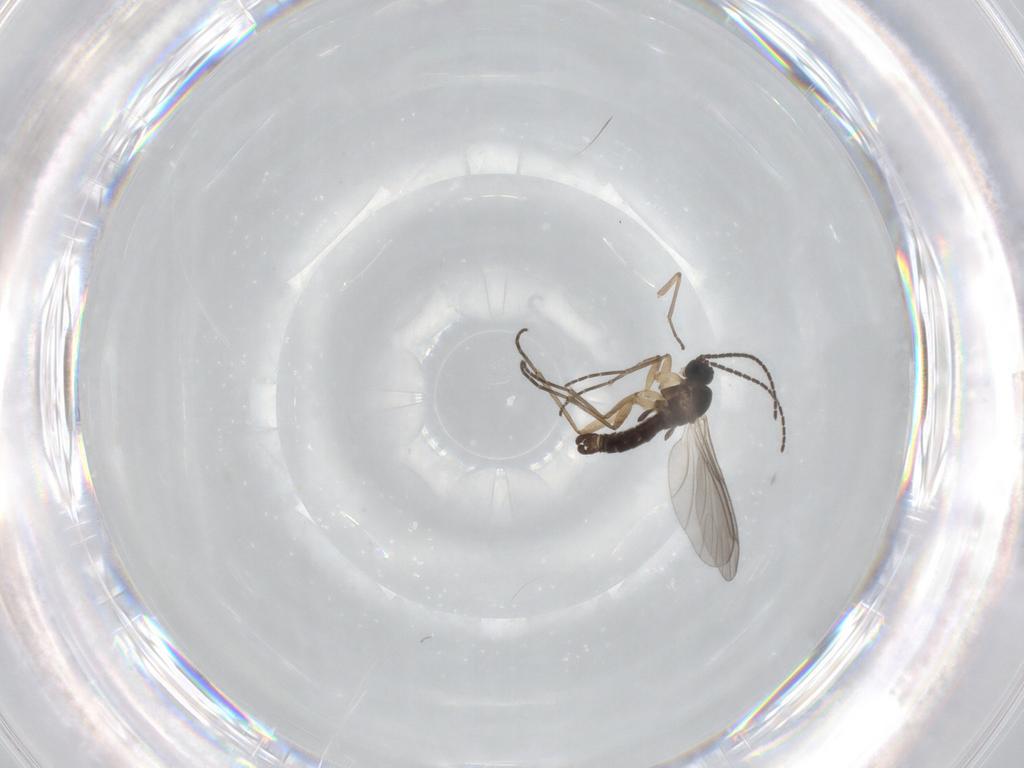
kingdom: Animalia
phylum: Arthropoda
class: Insecta
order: Diptera
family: Sciaridae
